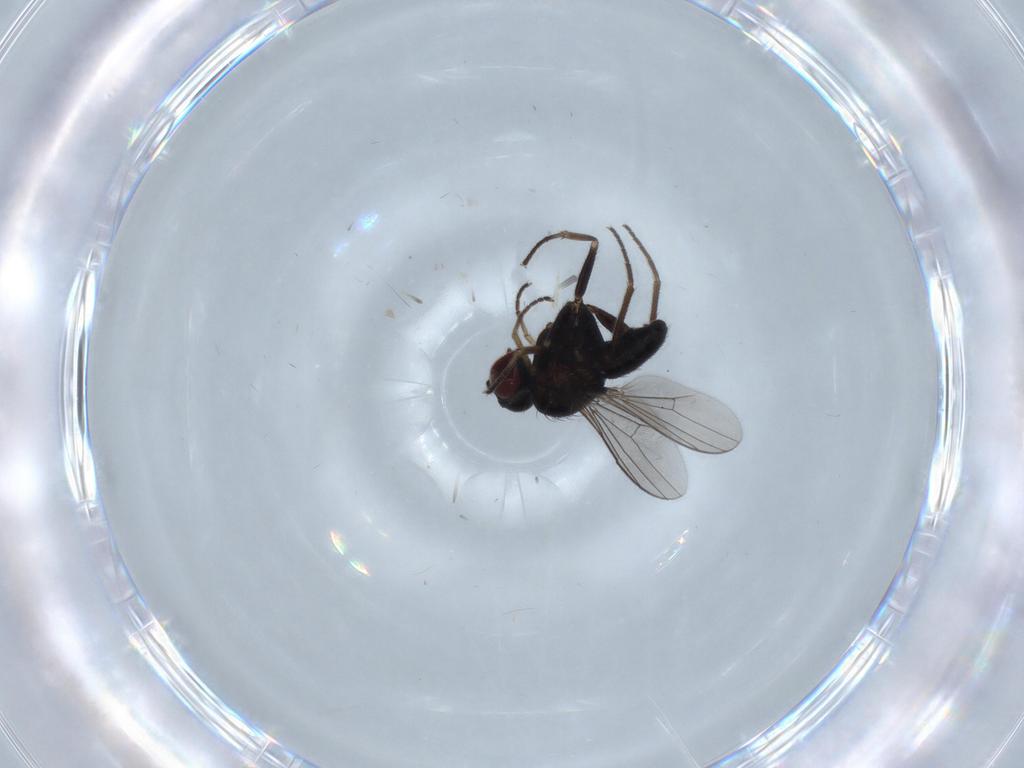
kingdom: Animalia
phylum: Arthropoda
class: Insecta
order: Diptera
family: Dolichopodidae
